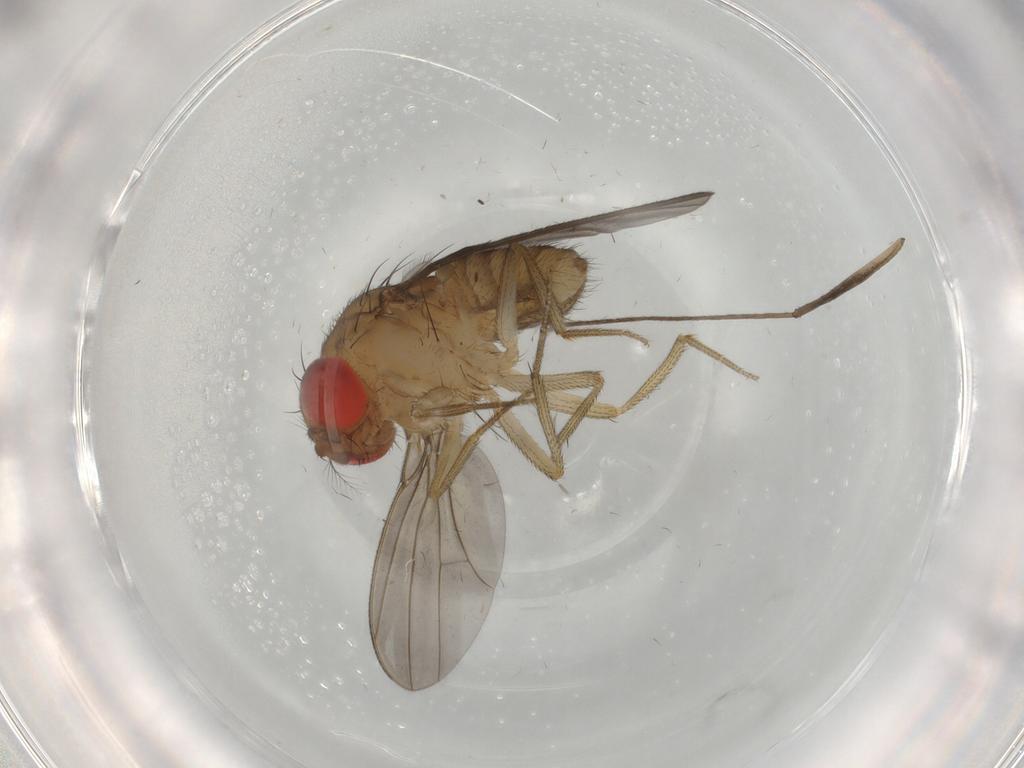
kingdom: Animalia
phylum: Arthropoda
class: Insecta
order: Diptera
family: Drosophilidae
